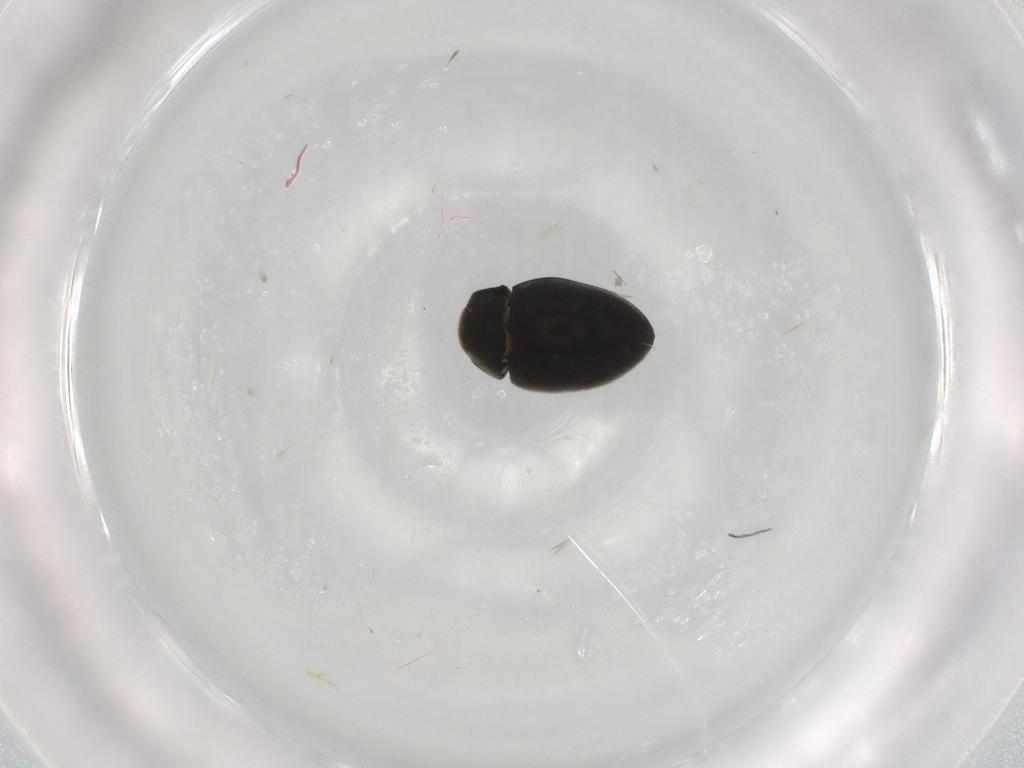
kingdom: Animalia
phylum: Arthropoda
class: Insecta
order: Coleoptera
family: Limnichidae
